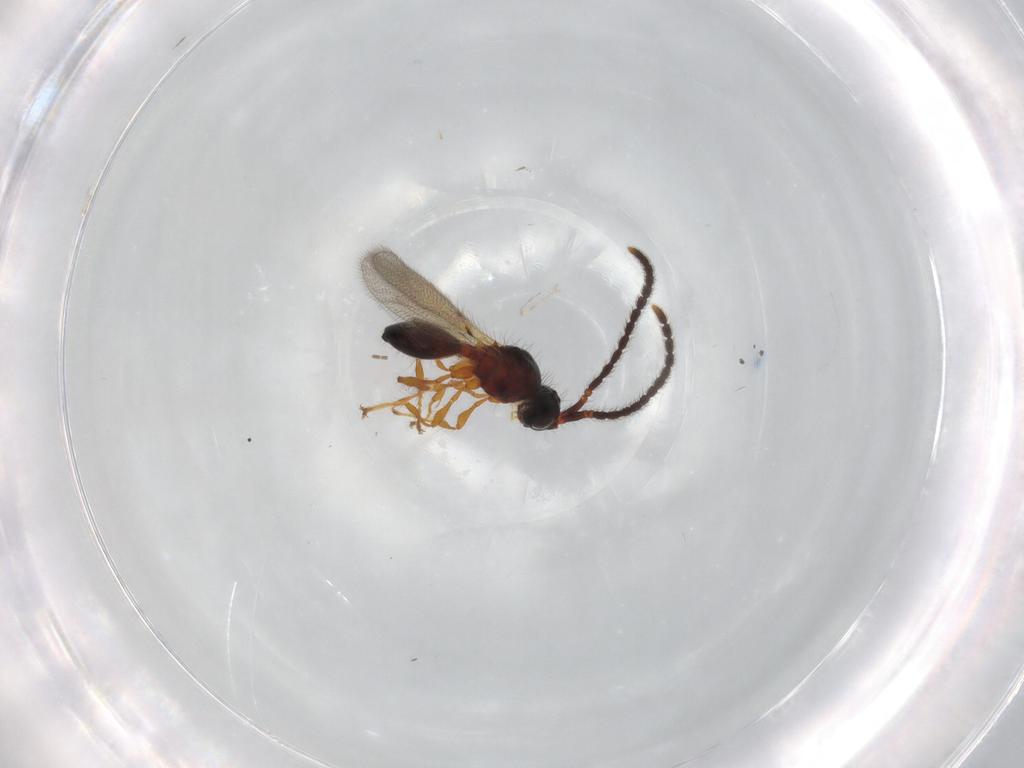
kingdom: Animalia
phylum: Arthropoda
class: Insecta
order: Hymenoptera
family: Diapriidae
